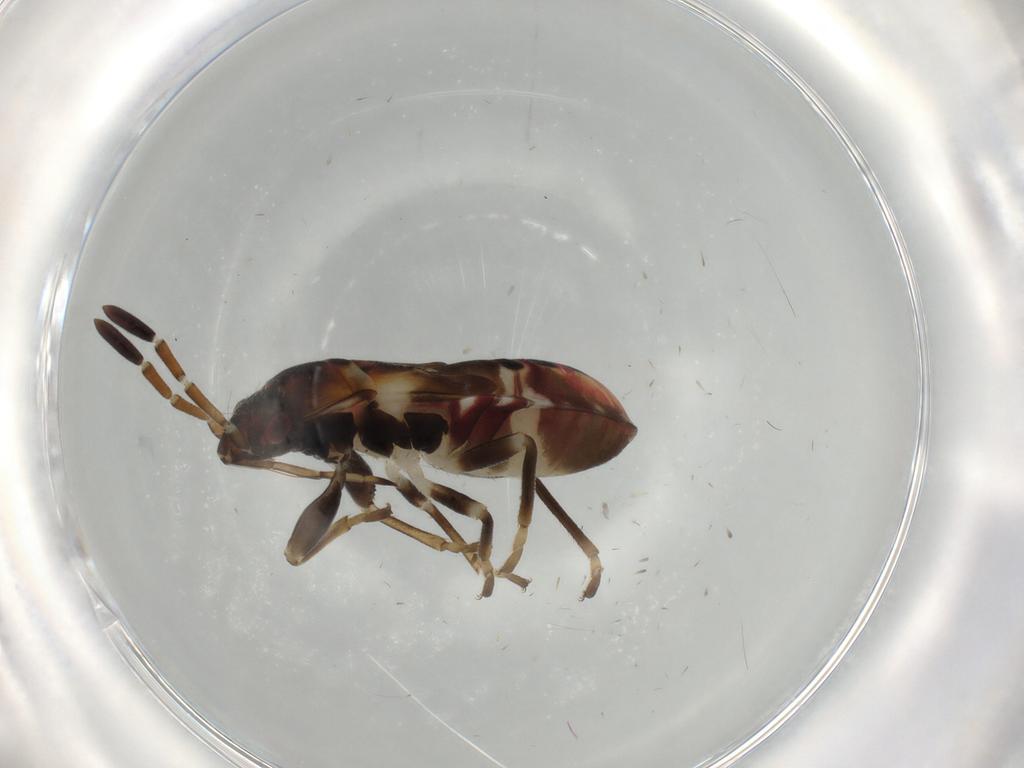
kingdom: Animalia
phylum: Arthropoda
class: Insecta
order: Hemiptera
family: Rhyparochromidae
